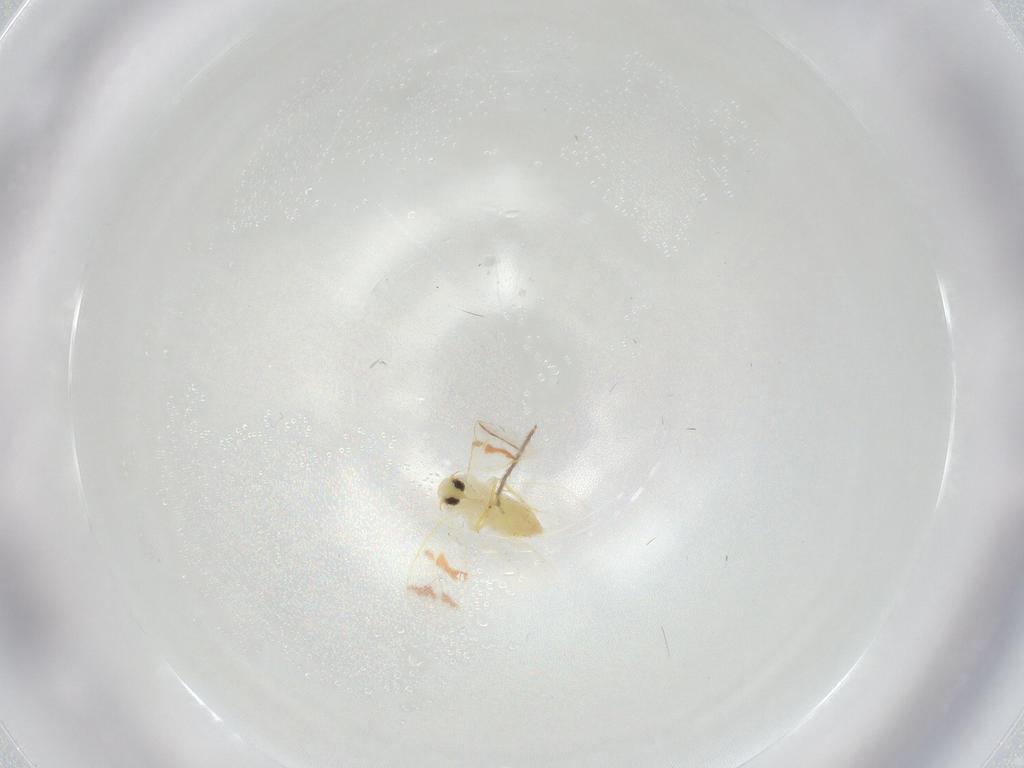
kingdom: Animalia
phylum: Arthropoda
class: Insecta
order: Hemiptera
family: Aleyrodidae
